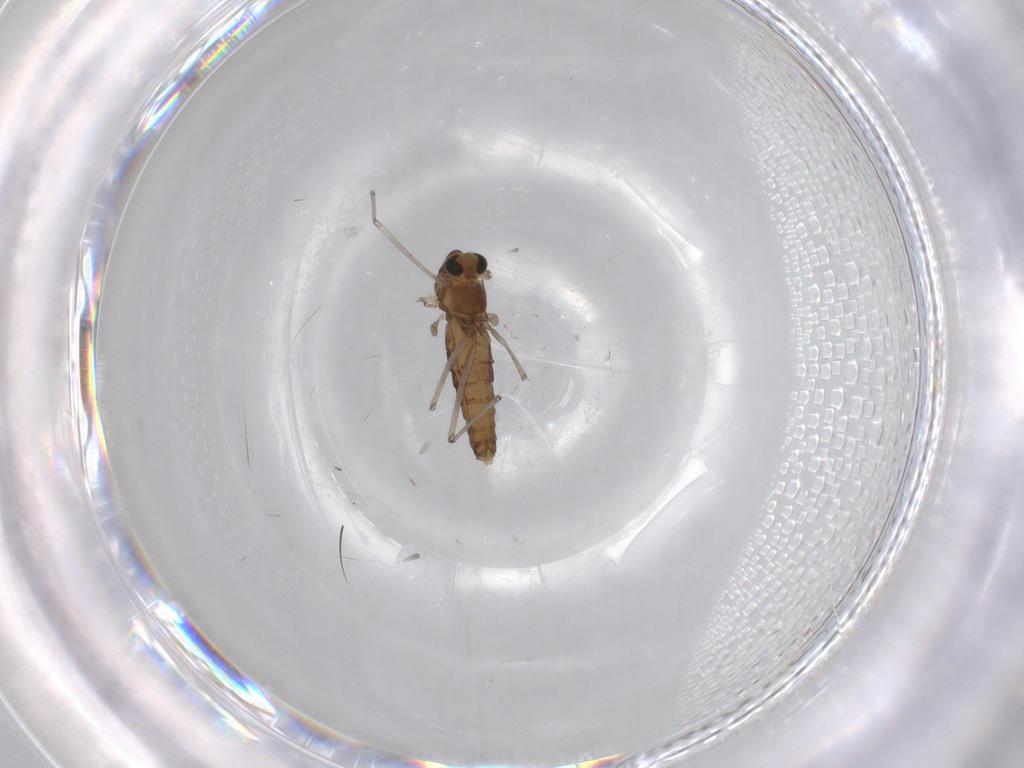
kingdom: Animalia
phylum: Arthropoda
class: Insecta
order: Diptera
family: Chironomidae
